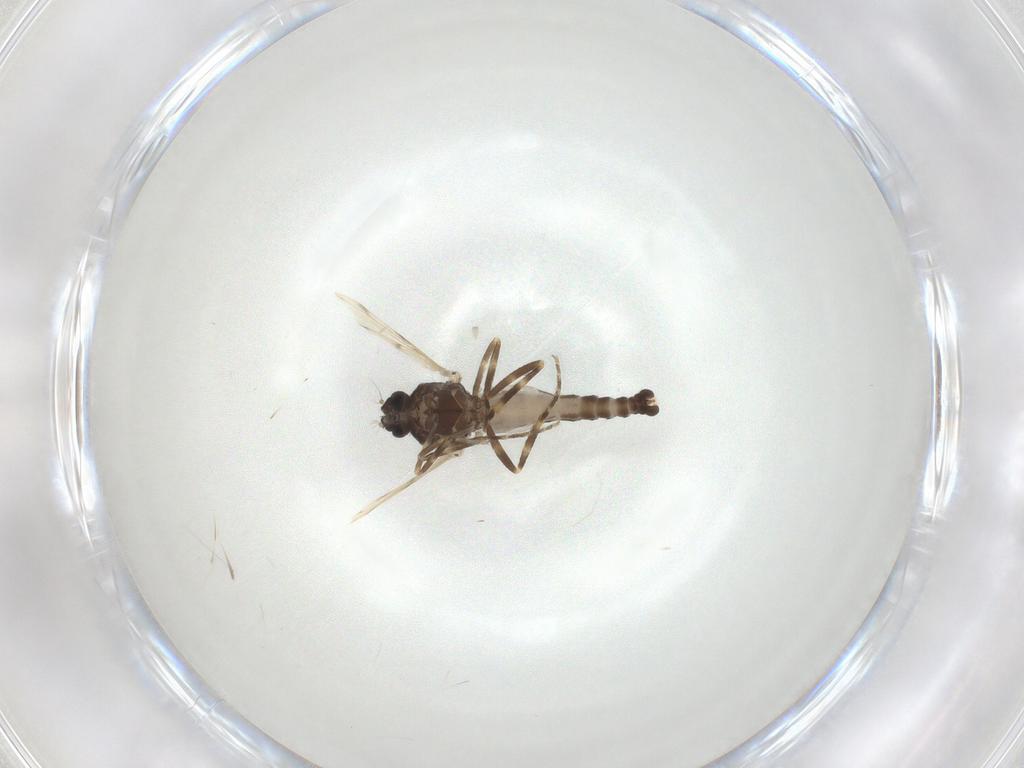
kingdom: Animalia
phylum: Arthropoda
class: Insecta
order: Diptera
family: Ceratopogonidae
